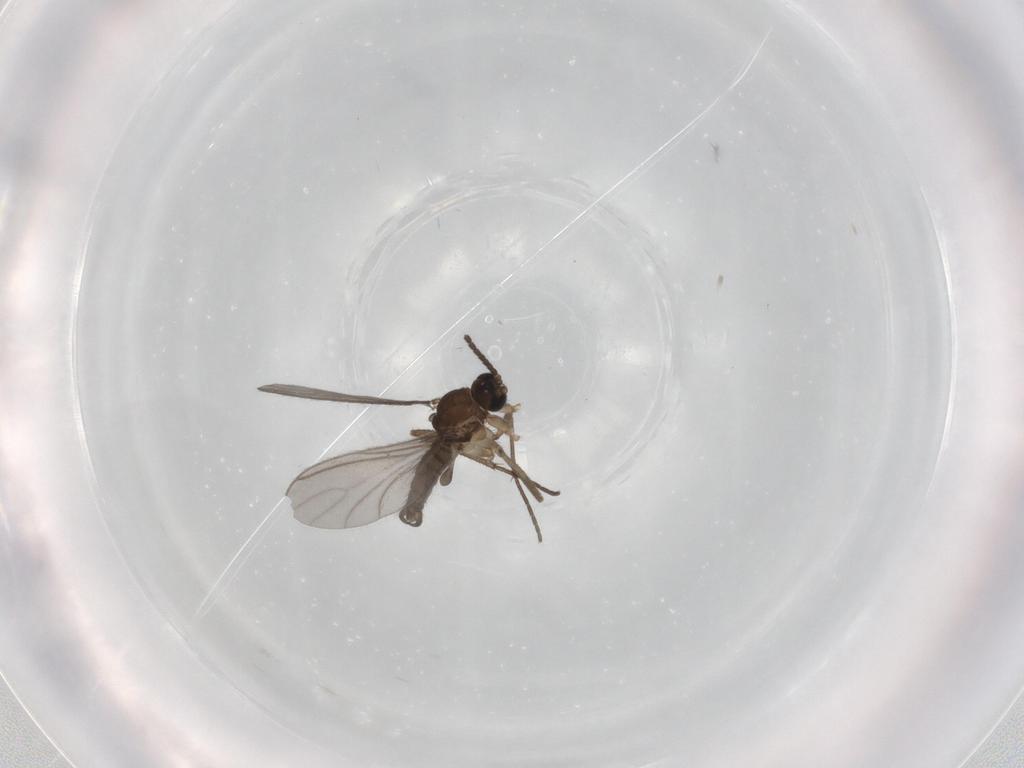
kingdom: Animalia
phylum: Arthropoda
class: Insecta
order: Diptera
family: Sciaridae
